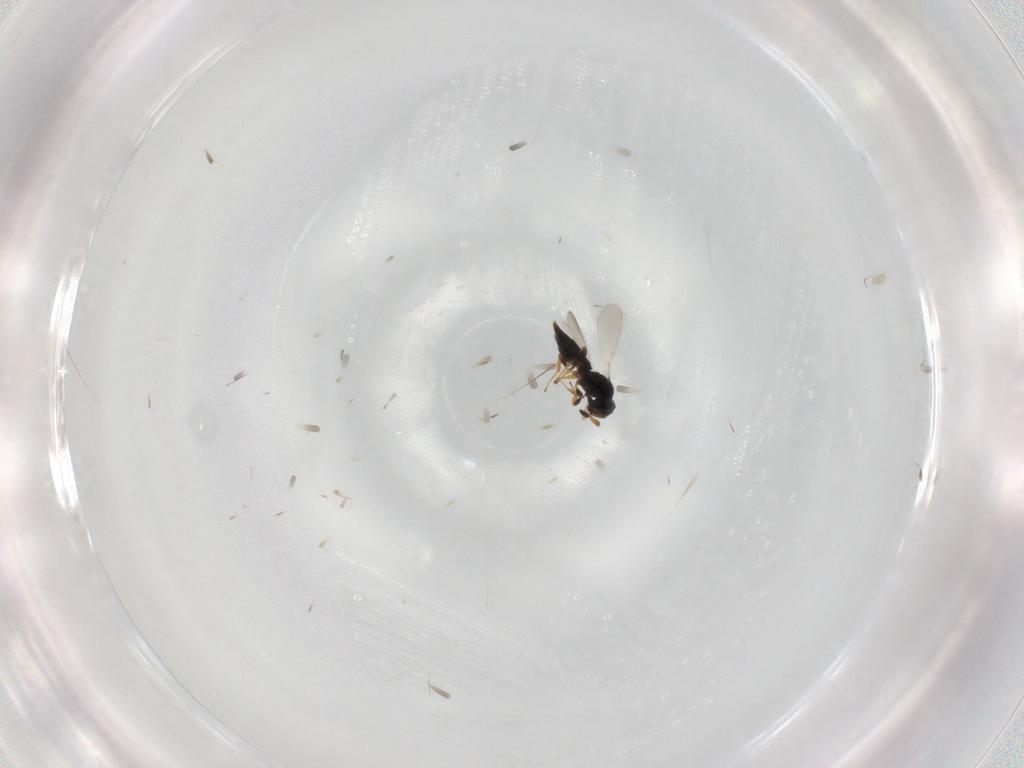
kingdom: Animalia
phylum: Arthropoda
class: Insecta
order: Hymenoptera
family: Platygastridae
